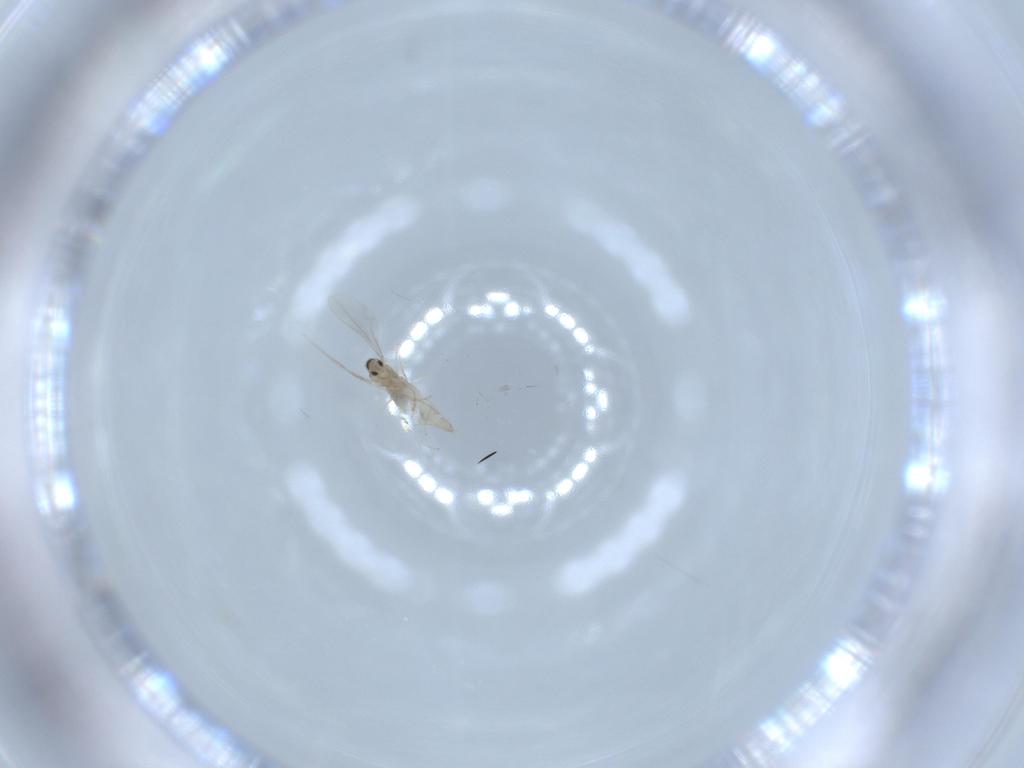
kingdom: Animalia
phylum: Arthropoda
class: Insecta
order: Diptera
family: Cecidomyiidae
